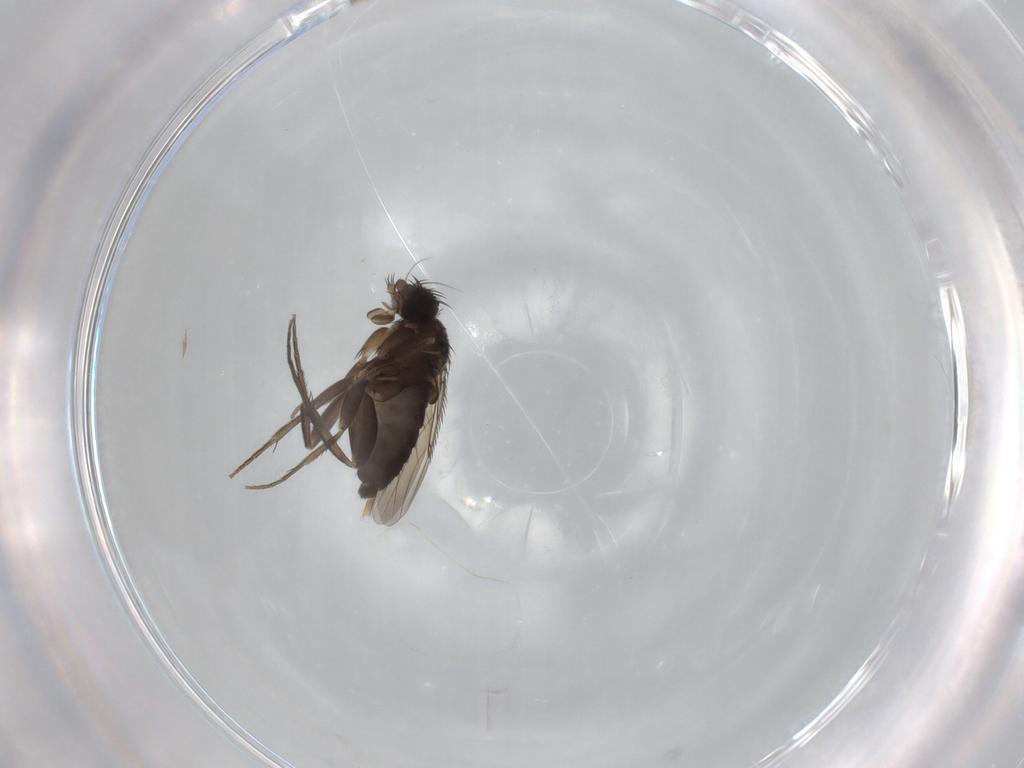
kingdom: Animalia
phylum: Arthropoda
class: Insecta
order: Diptera
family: Phoridae
